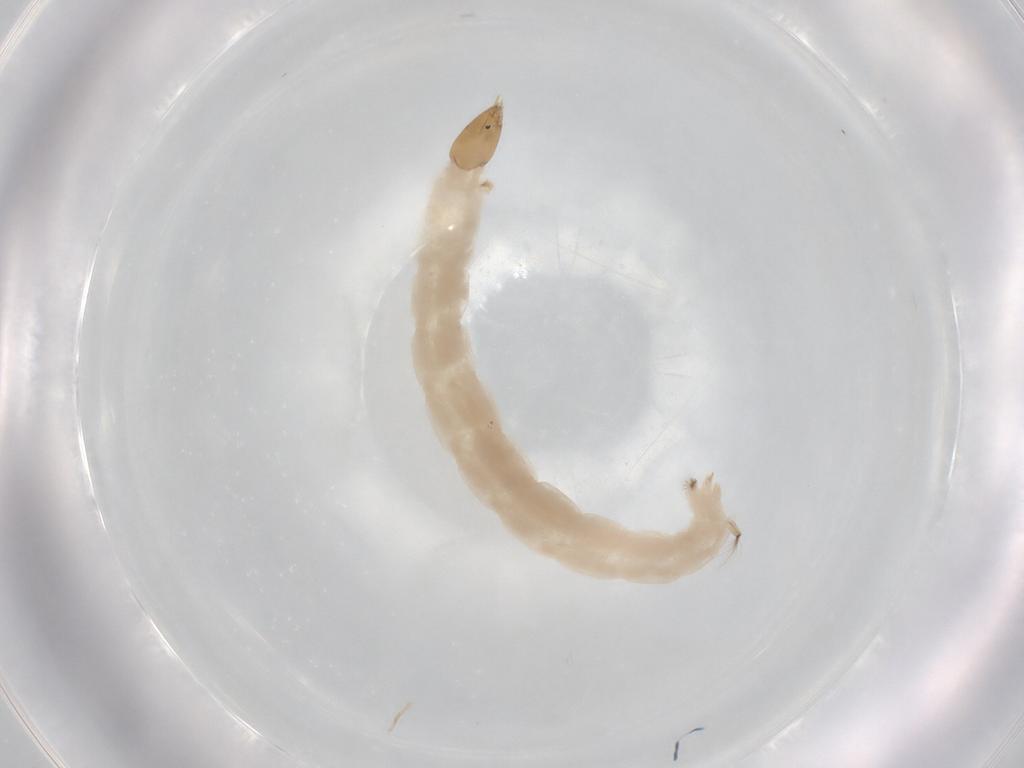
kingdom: Animalia
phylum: Arthropoda
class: Insecta
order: Diptera
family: Chironomidae
